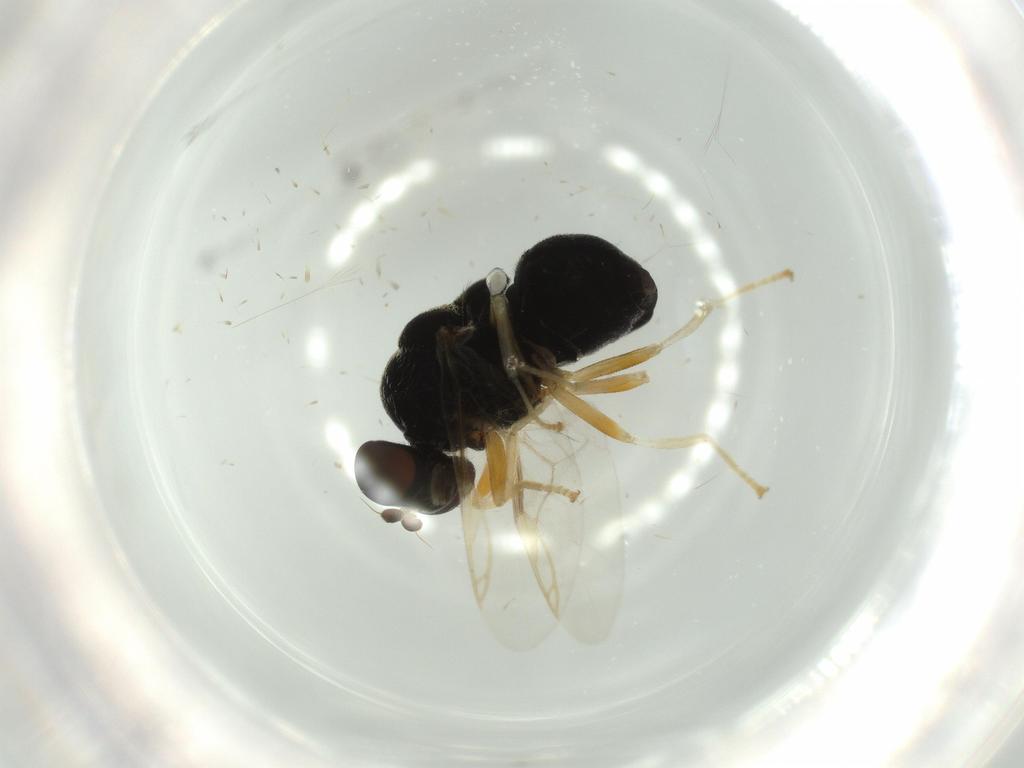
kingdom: Animalia
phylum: Arthropoda
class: Insecta
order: Diptera
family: Stratiomyidae
